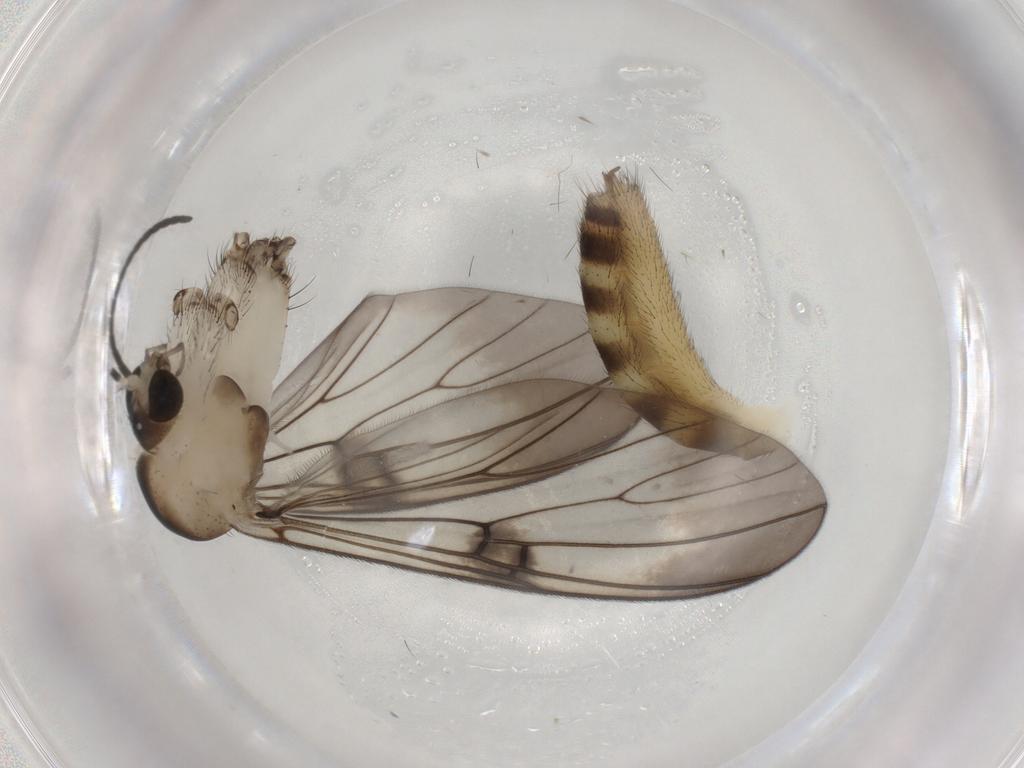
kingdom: Animalia
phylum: Arthropoda
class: Insecta
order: Diptera
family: Mycetophilidae
